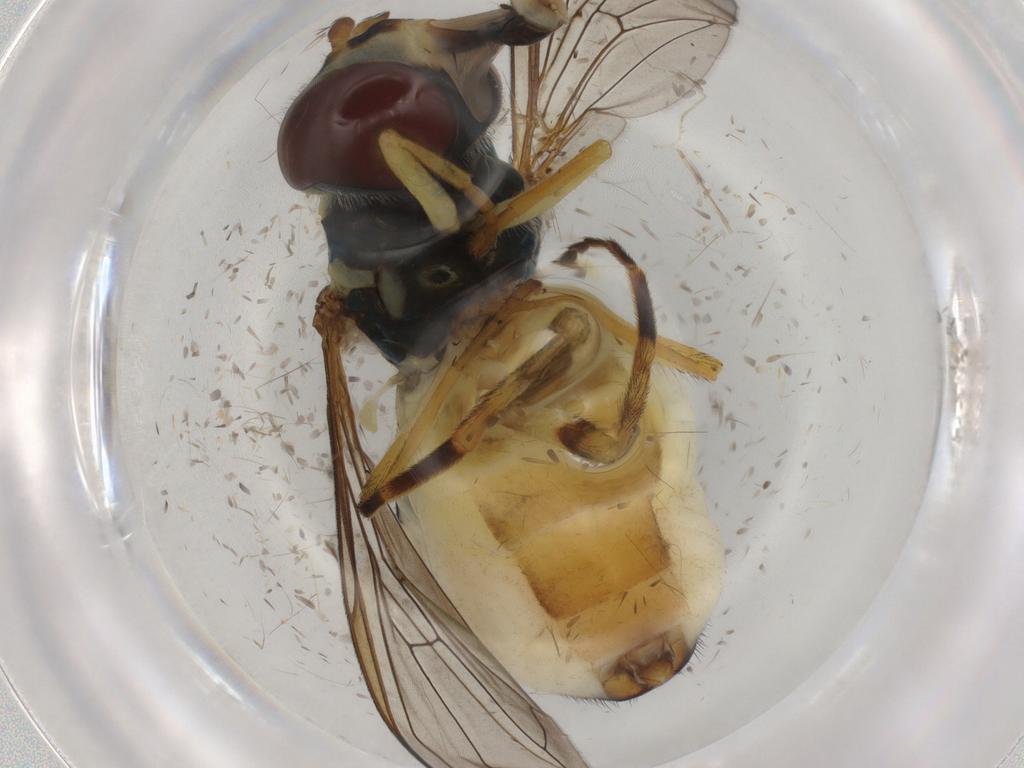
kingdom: Animalia
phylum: Arthropoda
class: Insecta
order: Diptera
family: Syrphidae
